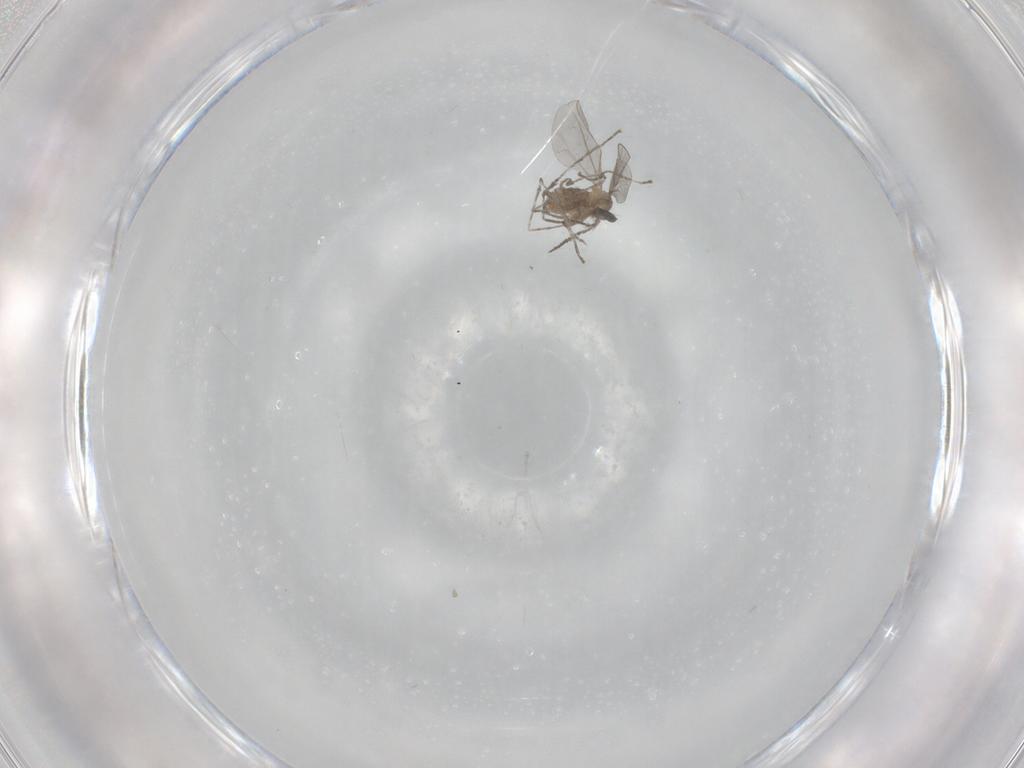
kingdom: Animalia
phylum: Arthropoda
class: Insecta
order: Diptera
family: Cecidomyiidae
